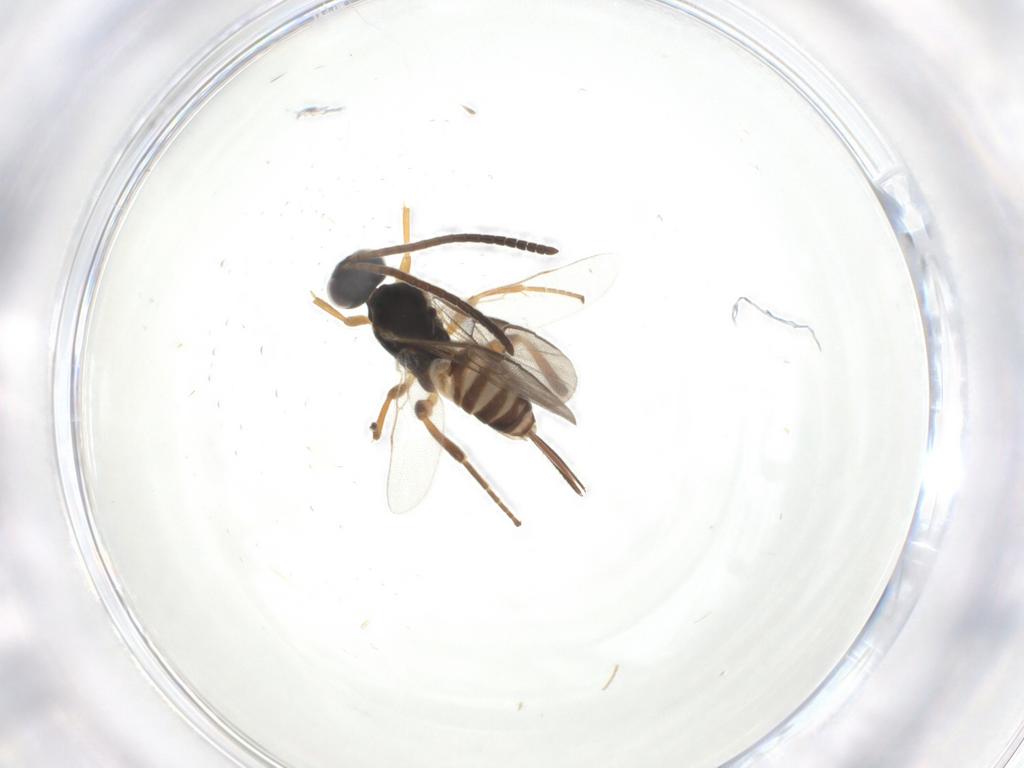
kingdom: Animalia
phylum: Arthropoda
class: Insecta
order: Hymenoptera
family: Braconidae
